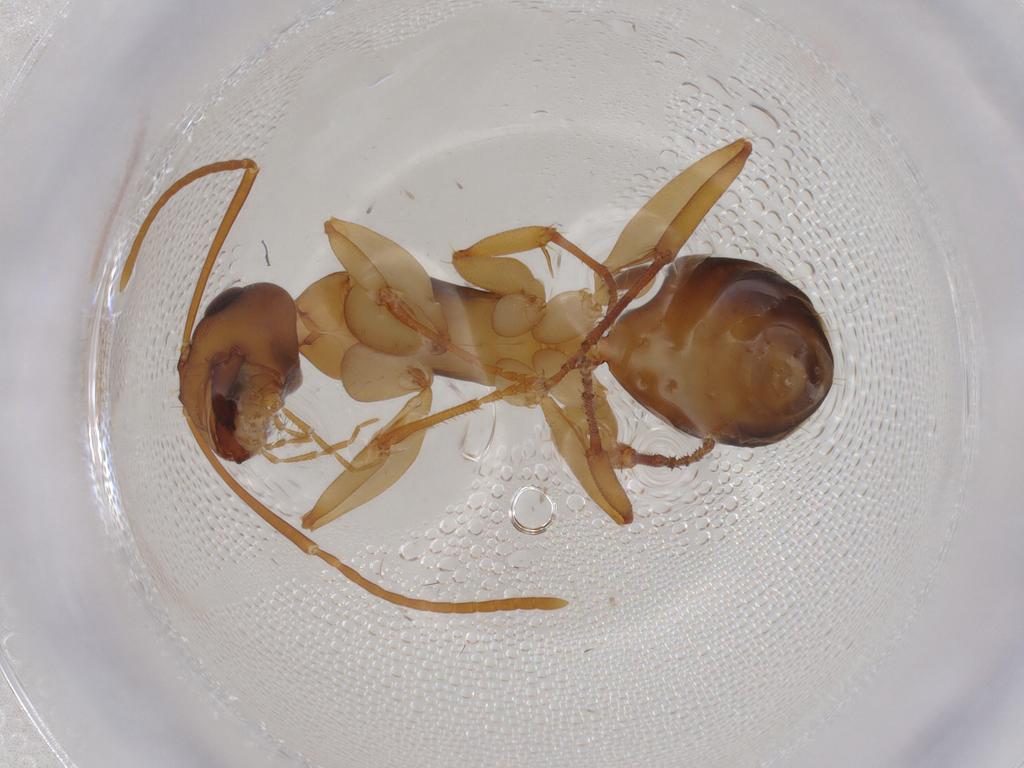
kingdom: Animalia
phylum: Arthropoda
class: Insecta
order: Hymenoptera
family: Formicidae
